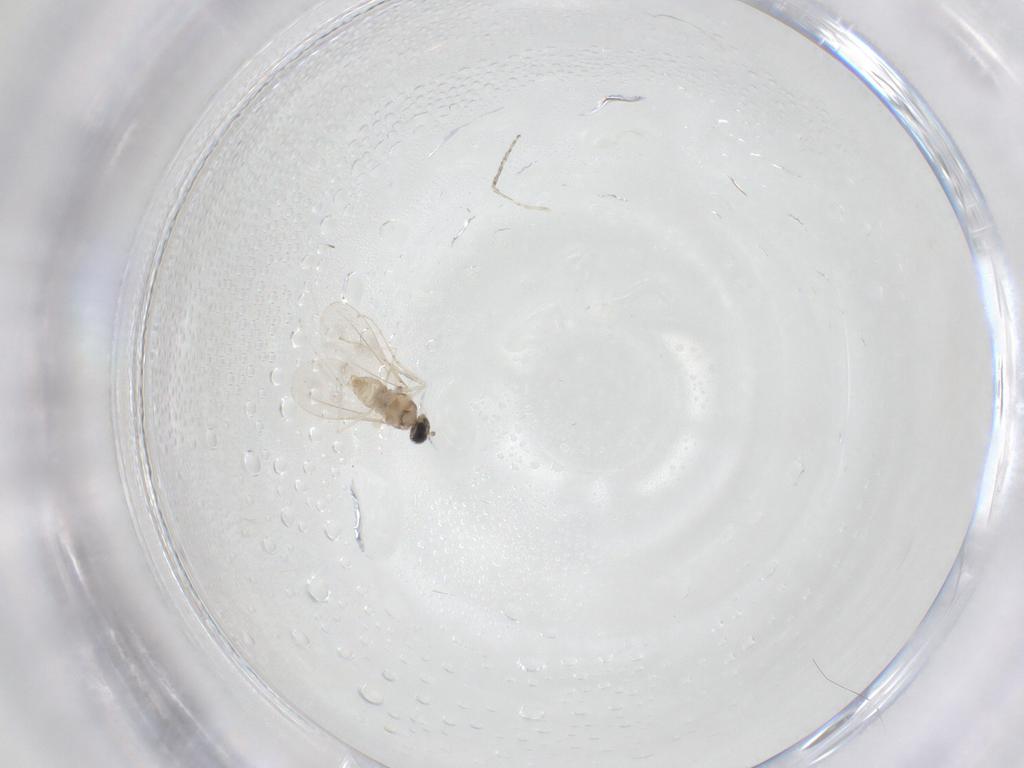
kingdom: Animalia
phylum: Arthropoda
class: Insecta
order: Diptera
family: Cecidomyiidae
